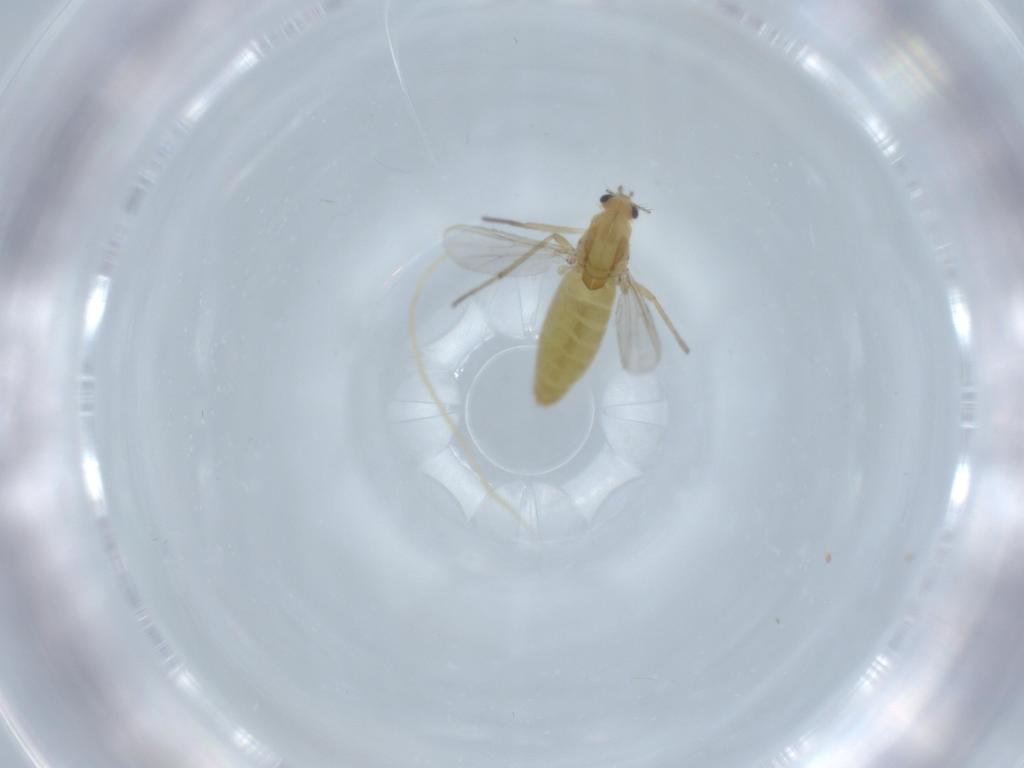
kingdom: Animalia
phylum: Arthropoda
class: Insecta
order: Diptera
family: Chironomidae
